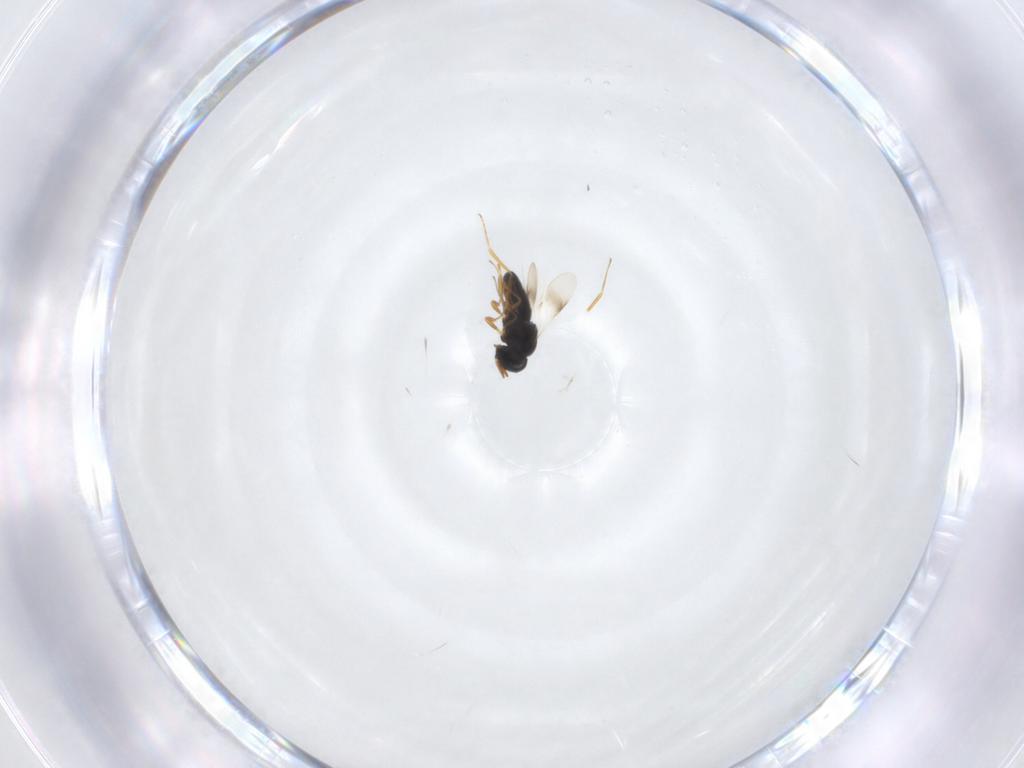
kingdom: Animalia
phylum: Arthropoda
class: Insecta
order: Hymenoptera
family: Scelionidae
